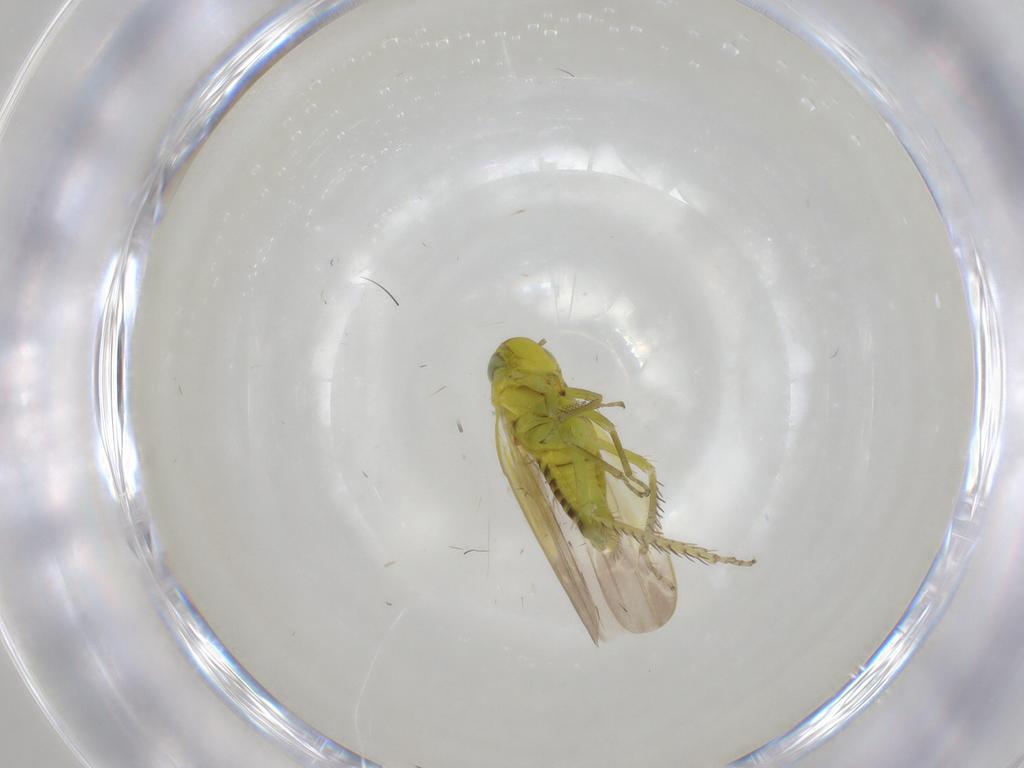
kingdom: Animalia
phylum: Arthropoda
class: Insecta
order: Hemiptera
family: Cicadellidae
